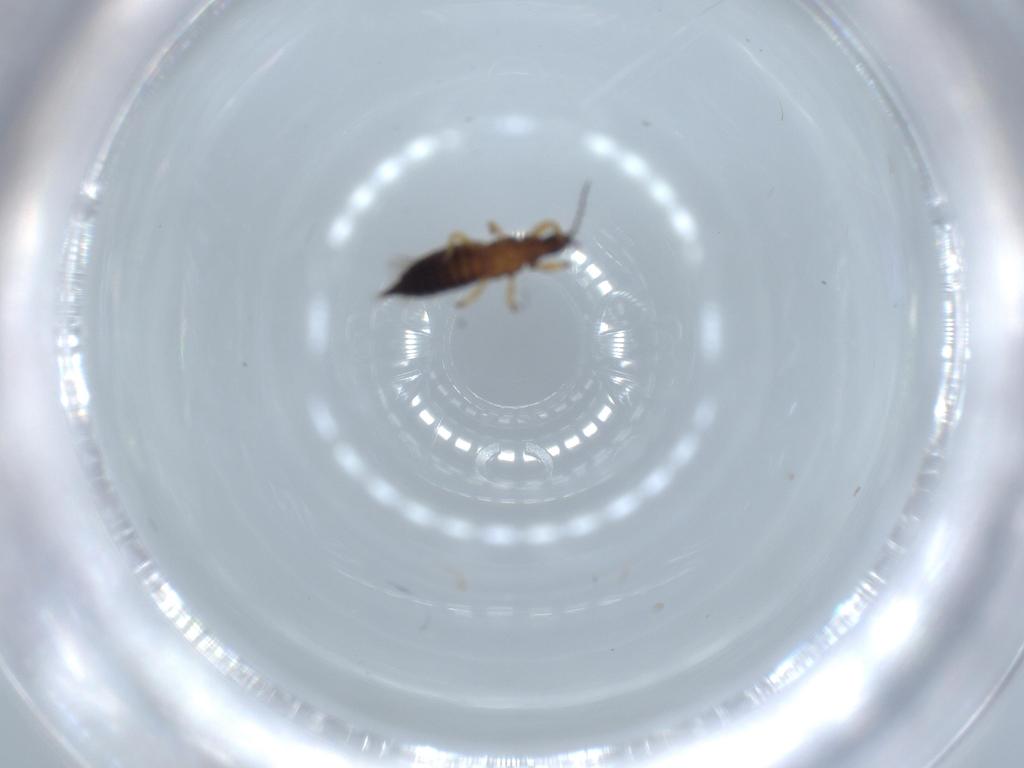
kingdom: Animalia
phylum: Arthropoda
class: Insecta
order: Thysanoptera
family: Phlaeothripidae
